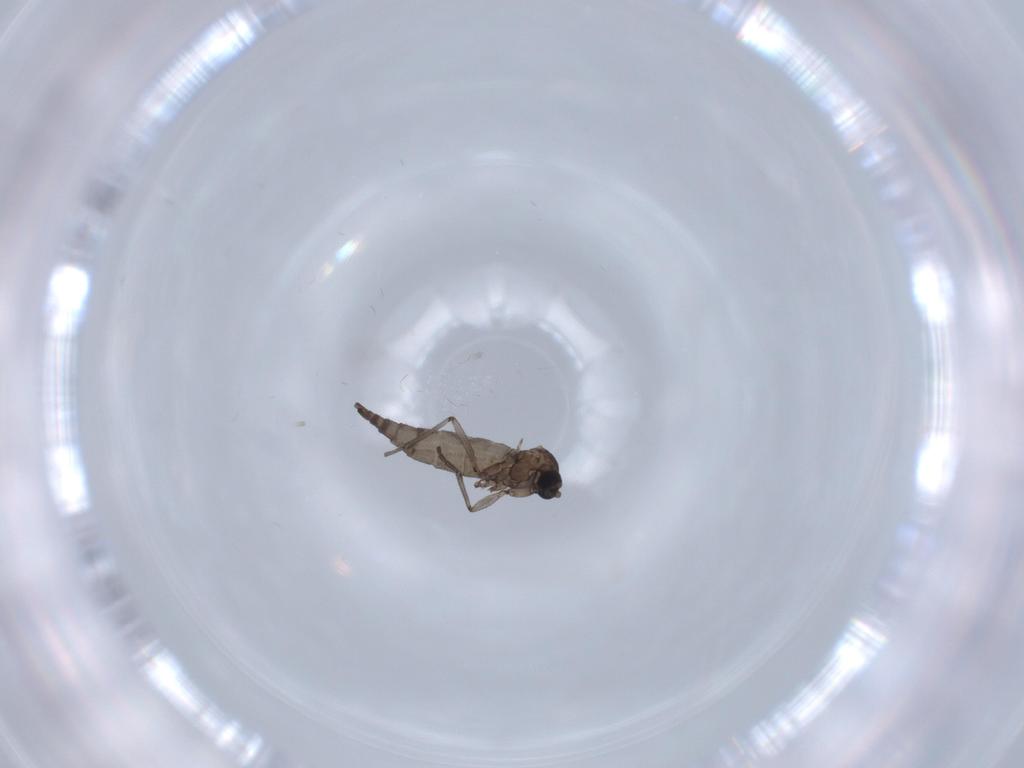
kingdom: Animalia
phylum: Arthropoda
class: Insecta
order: Diptera
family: Sciaridae
